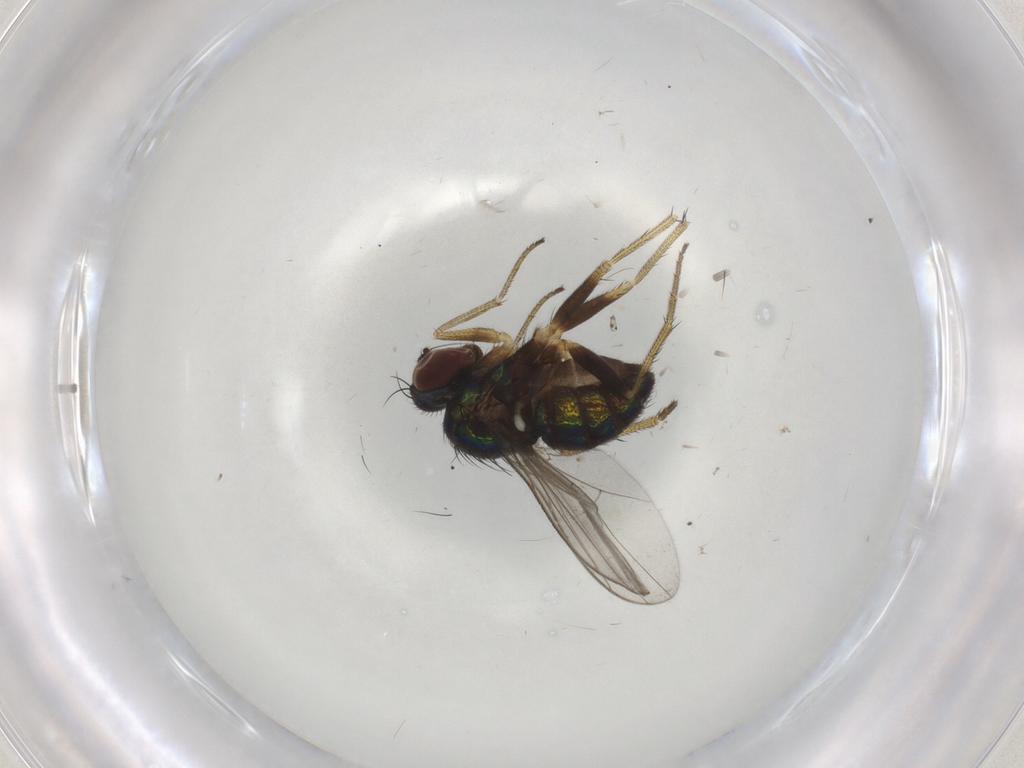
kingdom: Animalia
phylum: Arthropoda
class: Insecta
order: Diptera
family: Dolichopodidae
